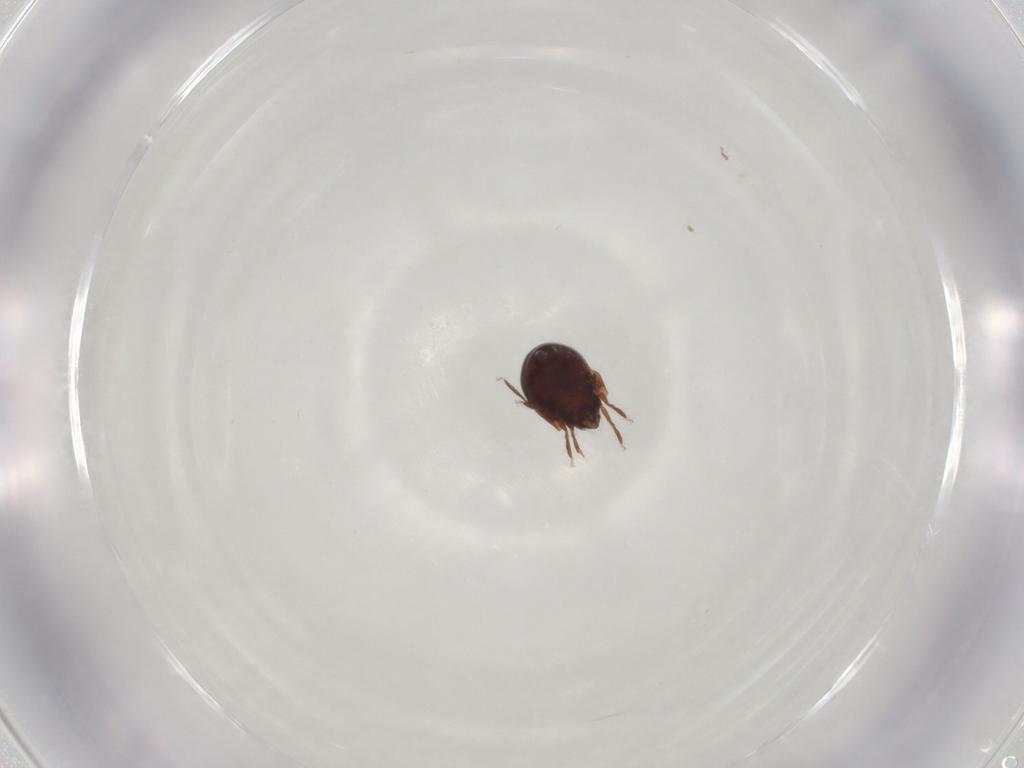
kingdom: Animalia
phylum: Arthropoda
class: Arachnida
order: Sarcoptiformes
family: Humerobatidae
